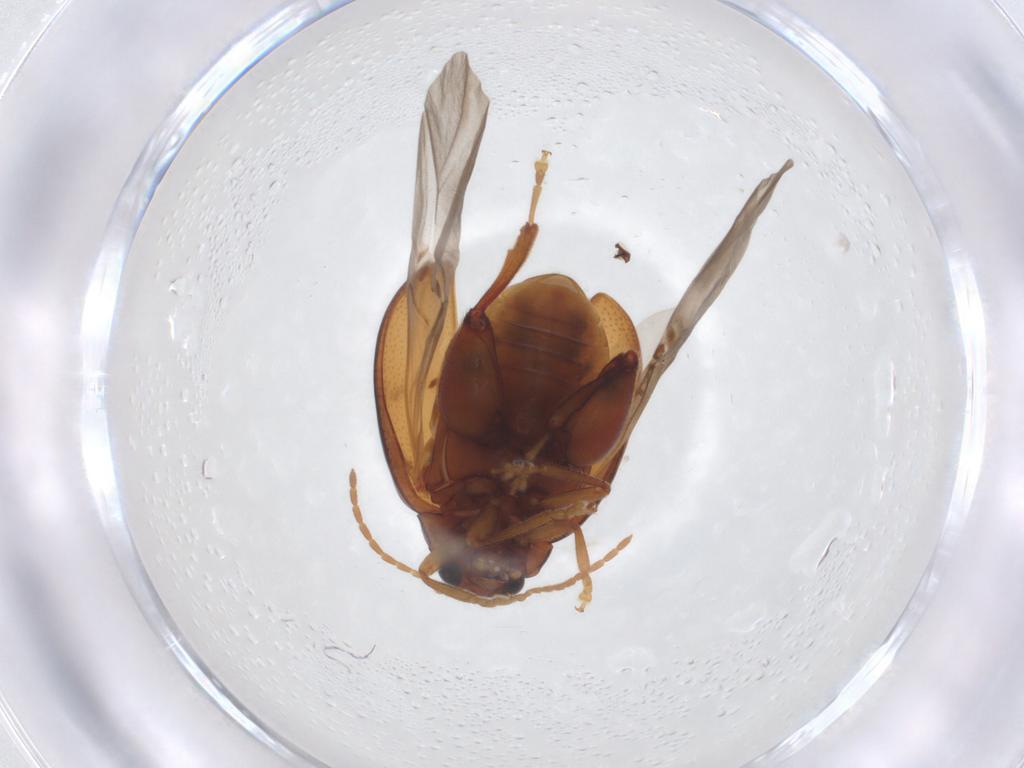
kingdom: Animalia
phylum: Arthropoda
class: Insecta
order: Coleoptera
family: Chrysomelidae
